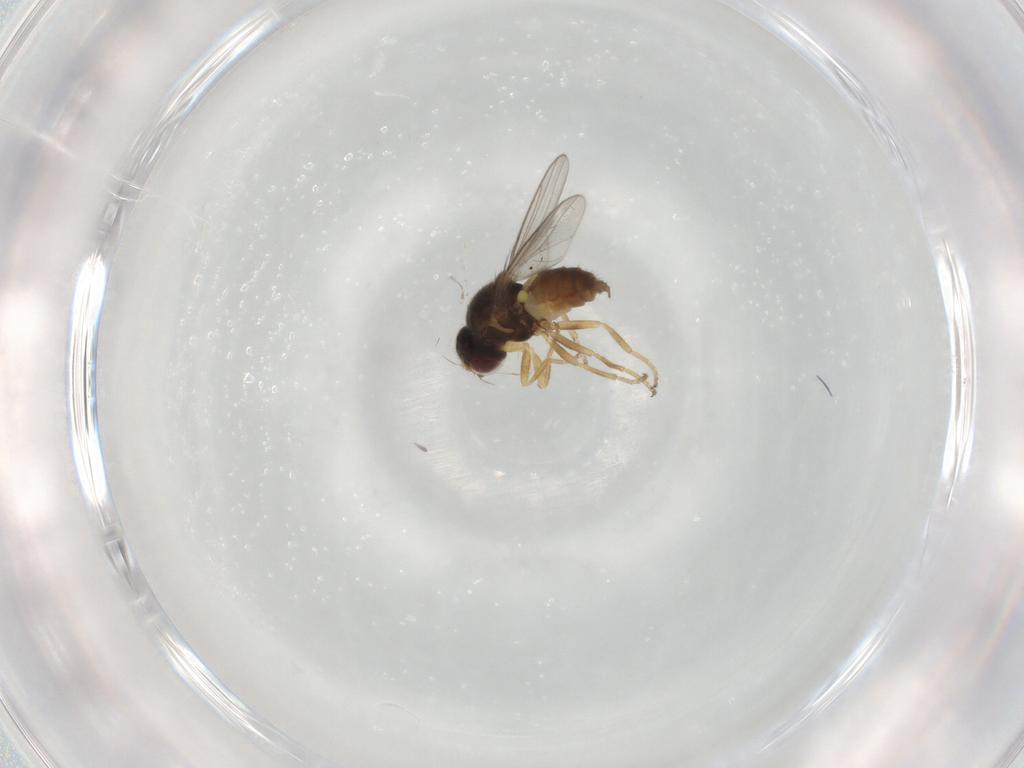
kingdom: Animalia
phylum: Arthropoda
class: Insecta
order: Diptera
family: Chloropidae
